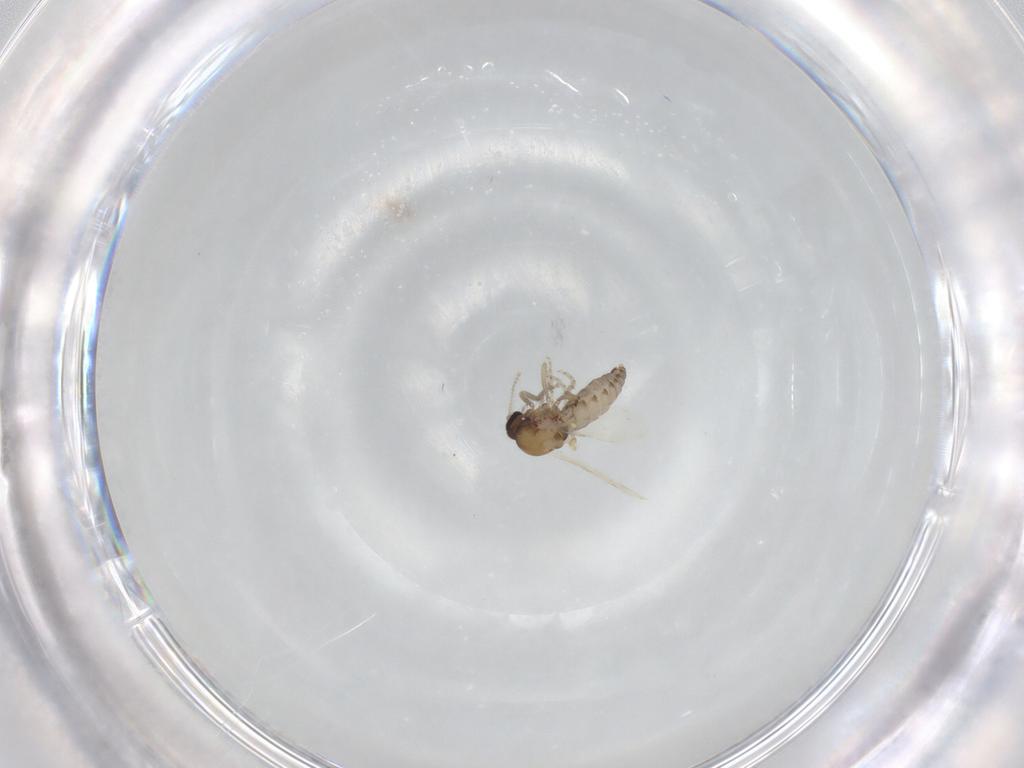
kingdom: Animalia
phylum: Arthropoda
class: Insecta
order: Diptera
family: Ceratopogonidae
